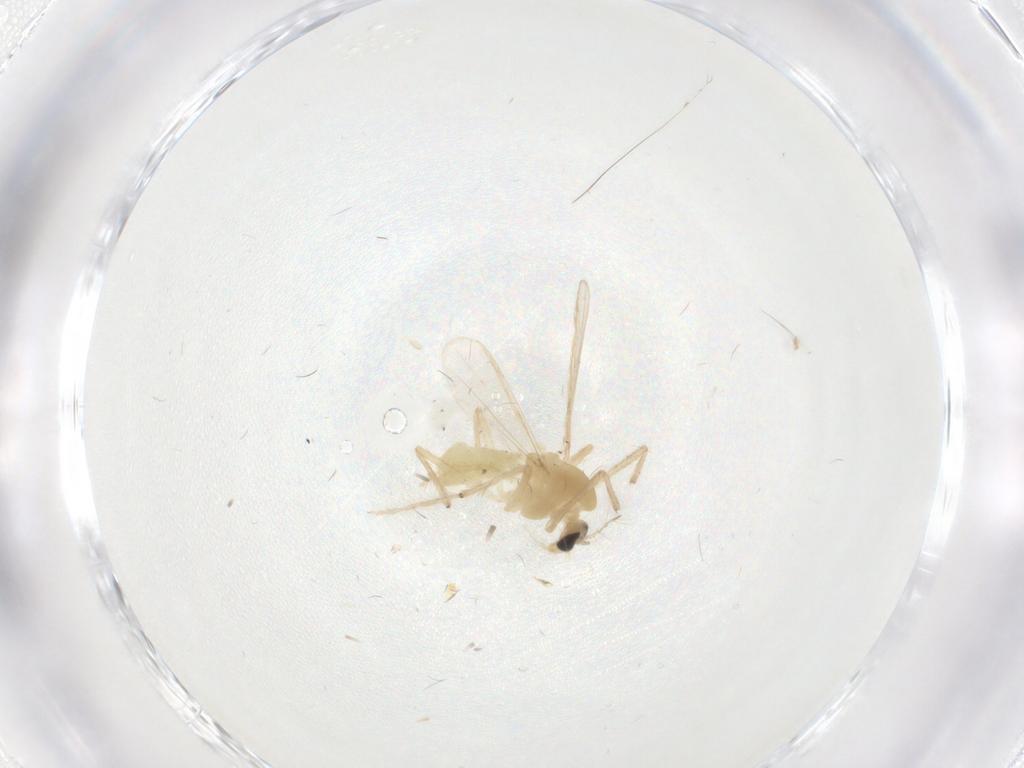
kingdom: Animalia
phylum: Arthropoda
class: Insecta
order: Diptera
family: Chironomidae
